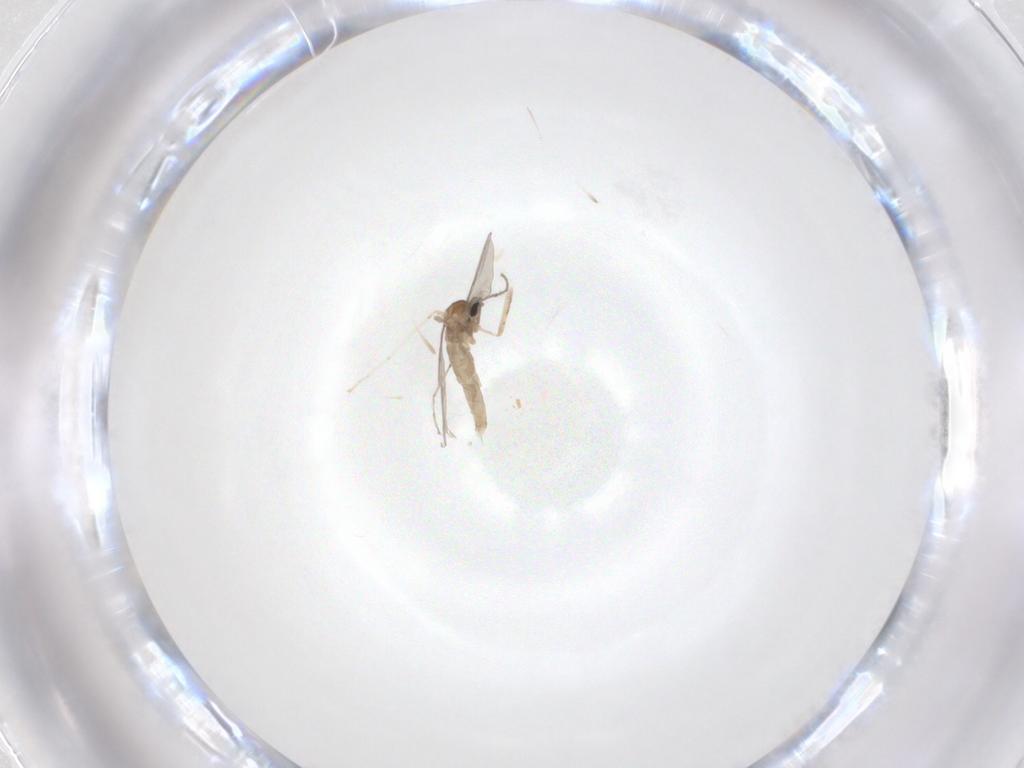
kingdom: Animalia
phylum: Arthropoda
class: Insecta
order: Diptera
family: Cecidomyiidae
